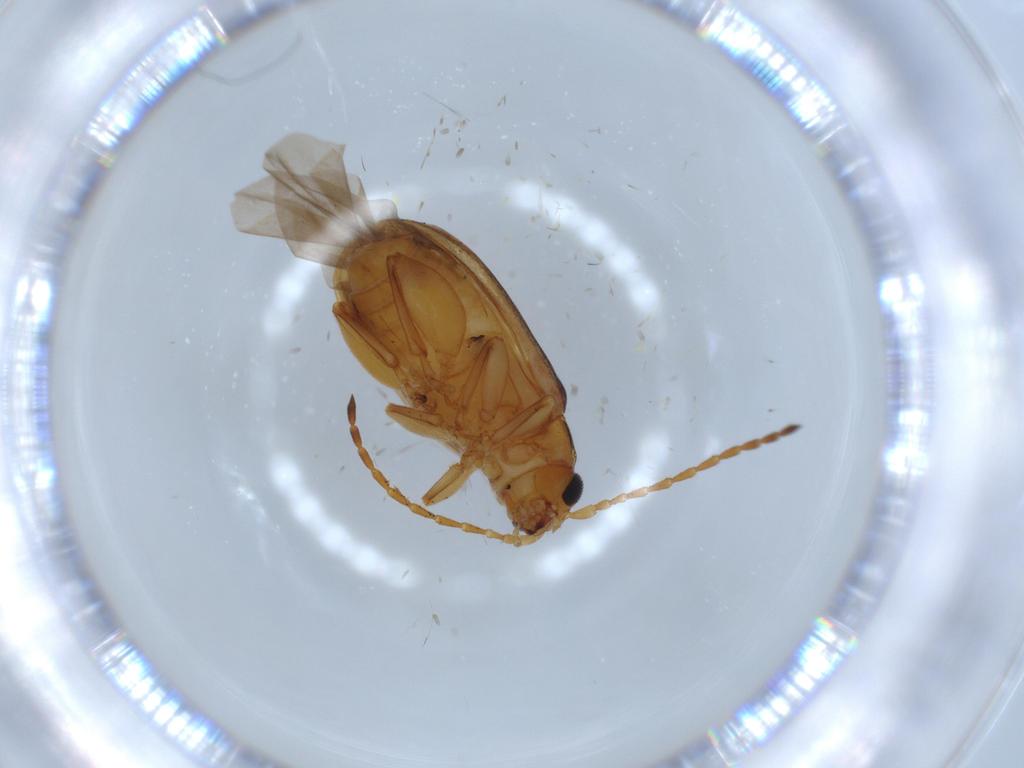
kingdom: Animalia
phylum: Arthropoda
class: Insecta
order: Coleoptera
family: Chrysomelidae
